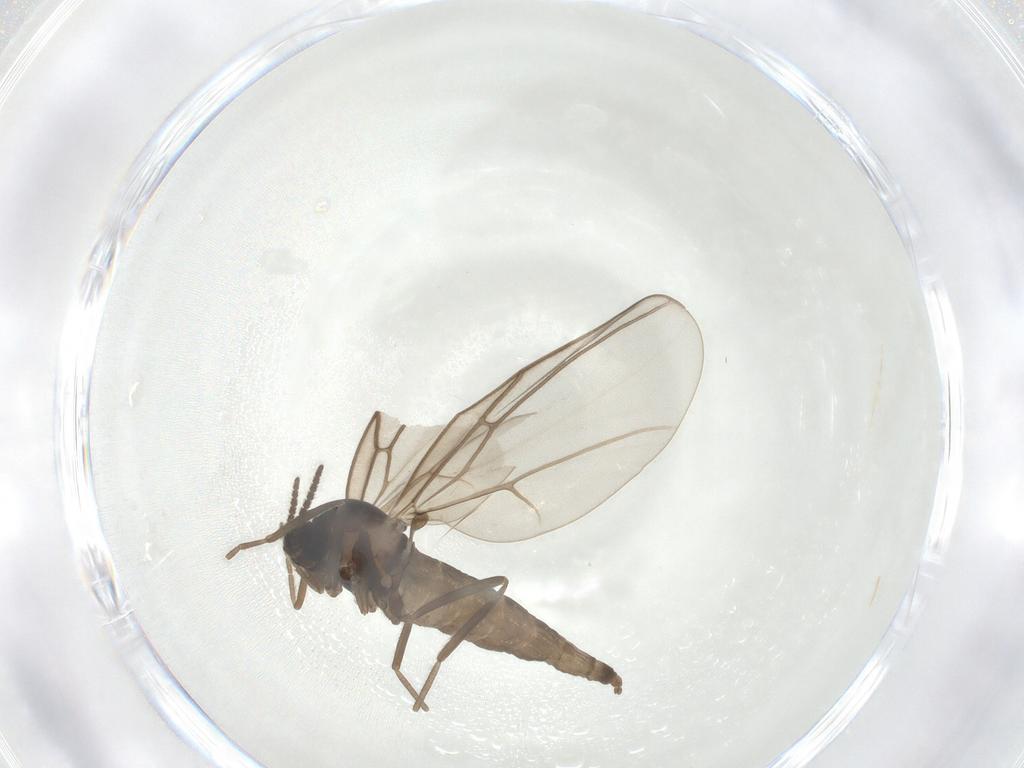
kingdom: Animalia
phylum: Arthropoda
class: Insecta
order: Diptera
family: Cecidomyiidae
